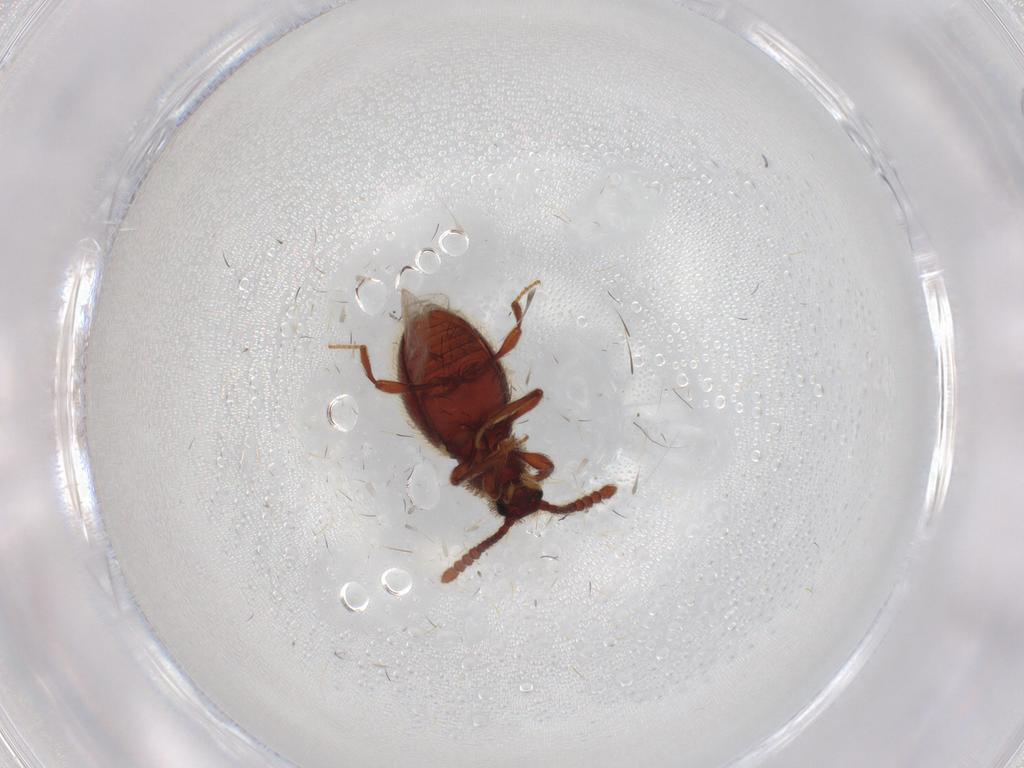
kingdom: Animalia
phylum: Arthropoda
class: Insecta
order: Coleoptera
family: Staphylinidae
